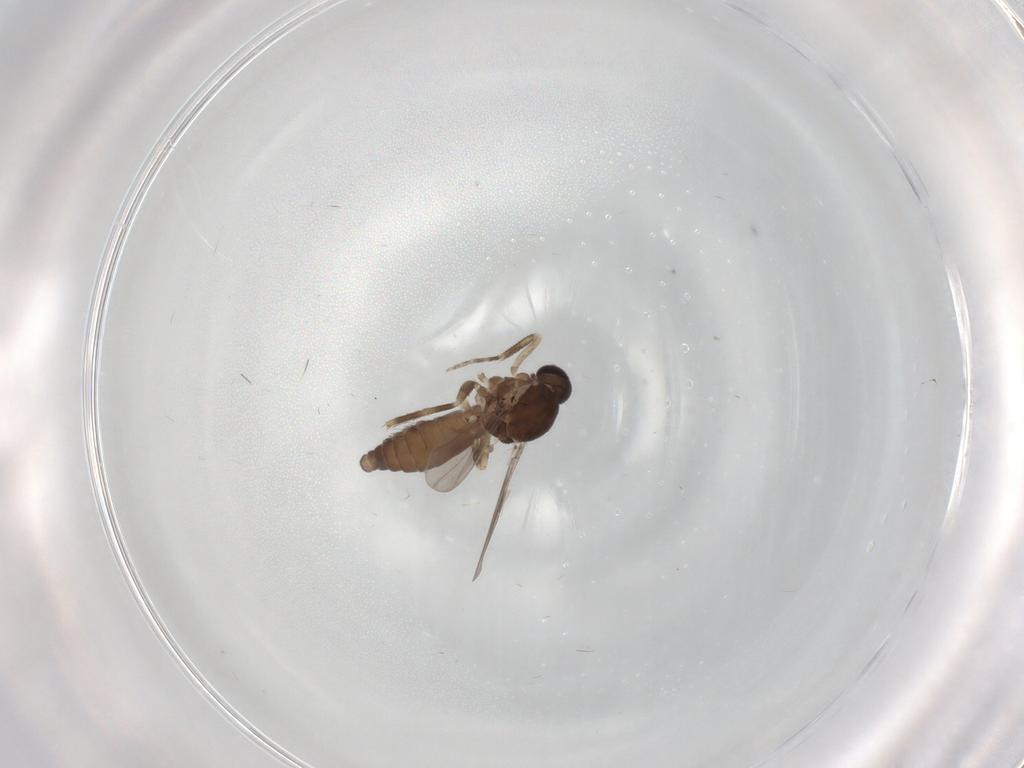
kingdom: Animalia
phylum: Arthropoda
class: Insecta
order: Diptera
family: Ceratopogonidae
